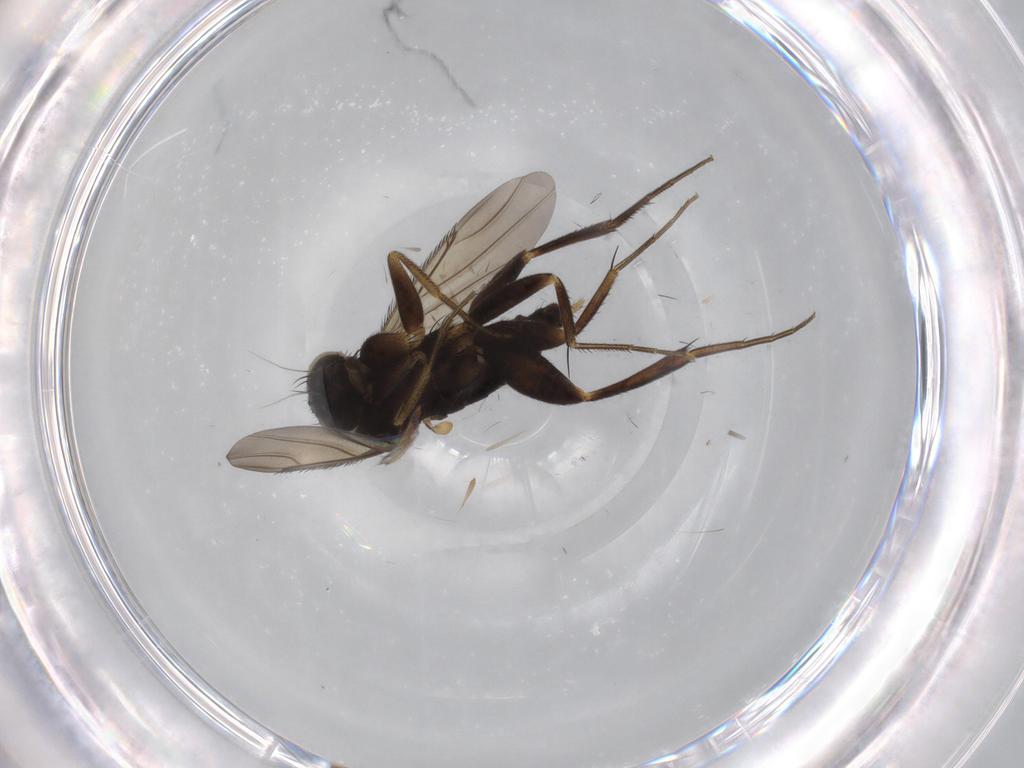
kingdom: Animalia
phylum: Arthropoda
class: Insecta
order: Diptera
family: Phoridae
